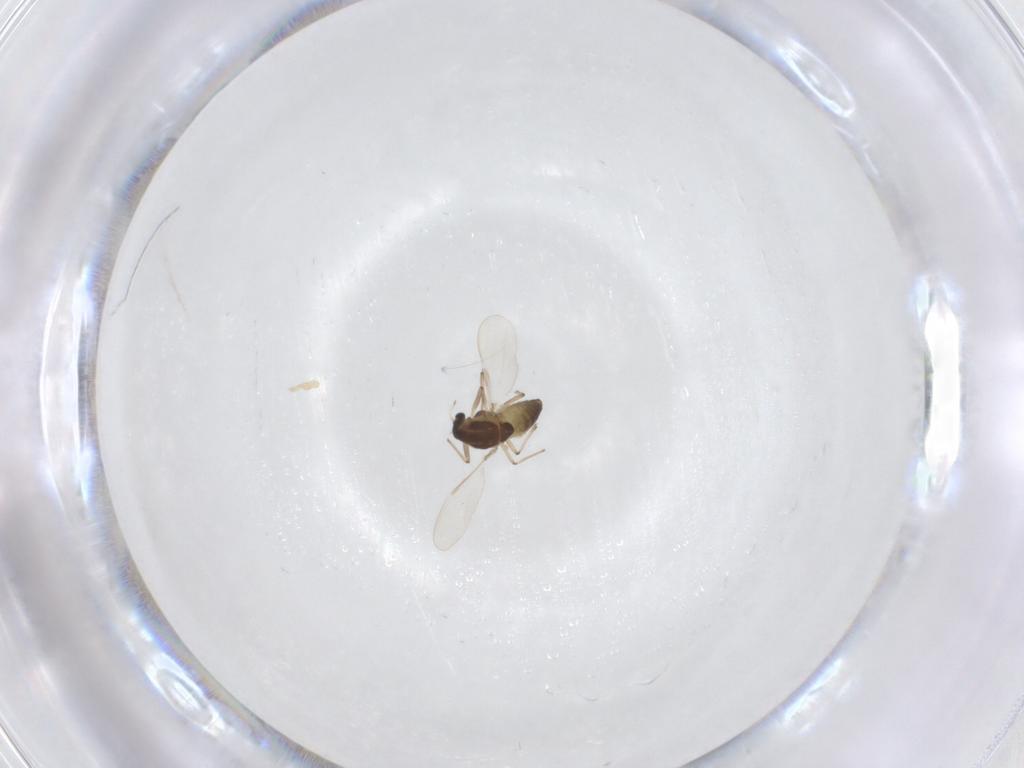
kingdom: Animalia
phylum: Arthropoda
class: Insecta
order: Diptera
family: Chironomidae
